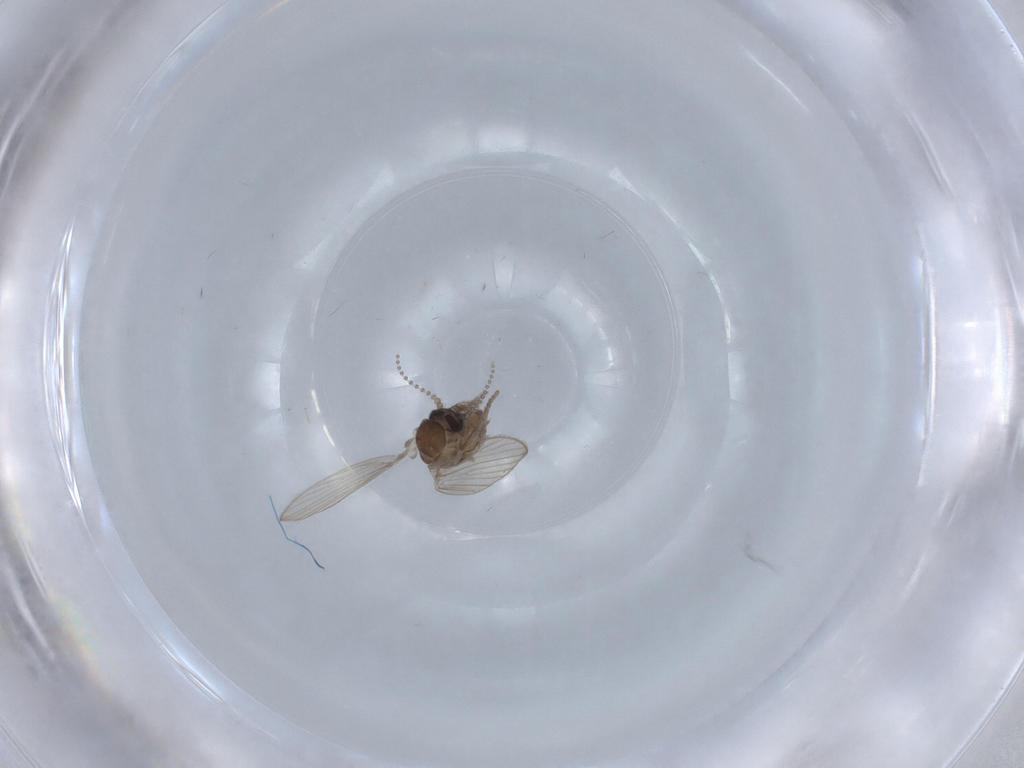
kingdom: Animalia
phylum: Arthropoda
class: Insecta
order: Diptera
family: Psychodidae
